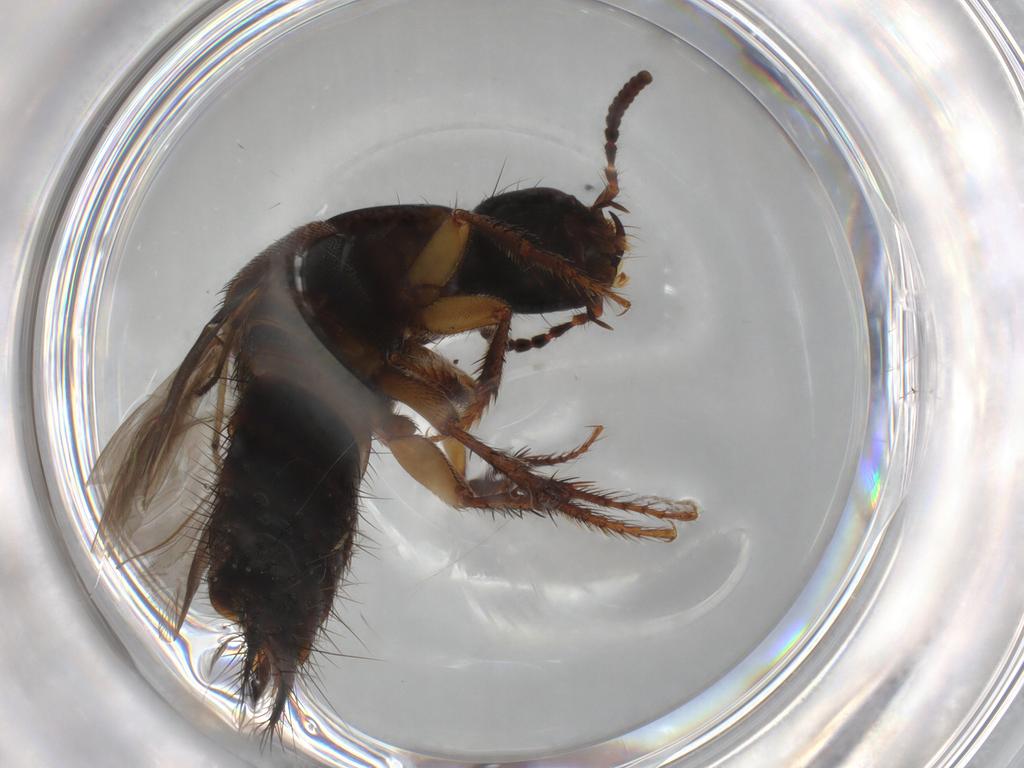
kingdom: Animalia
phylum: Arthropoda
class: Insecta
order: Coleoptera
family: Staphylinidae
